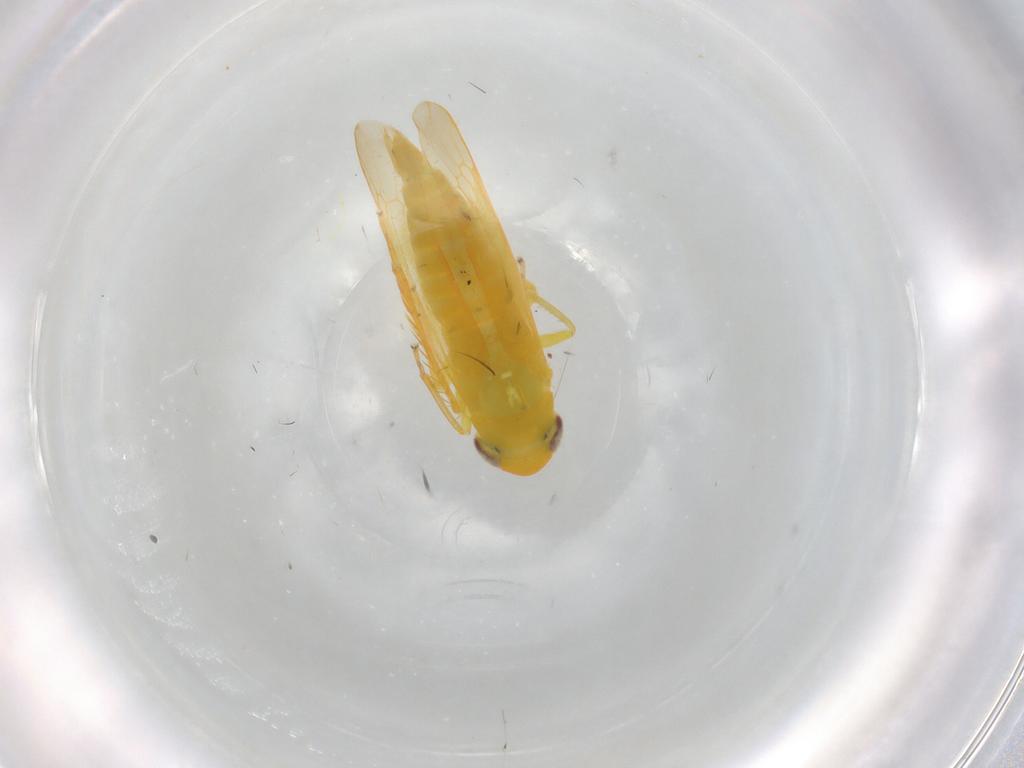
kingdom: Animalia
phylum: Arthropoda
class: Insecta
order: Hemiptera
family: Cicadellidae
